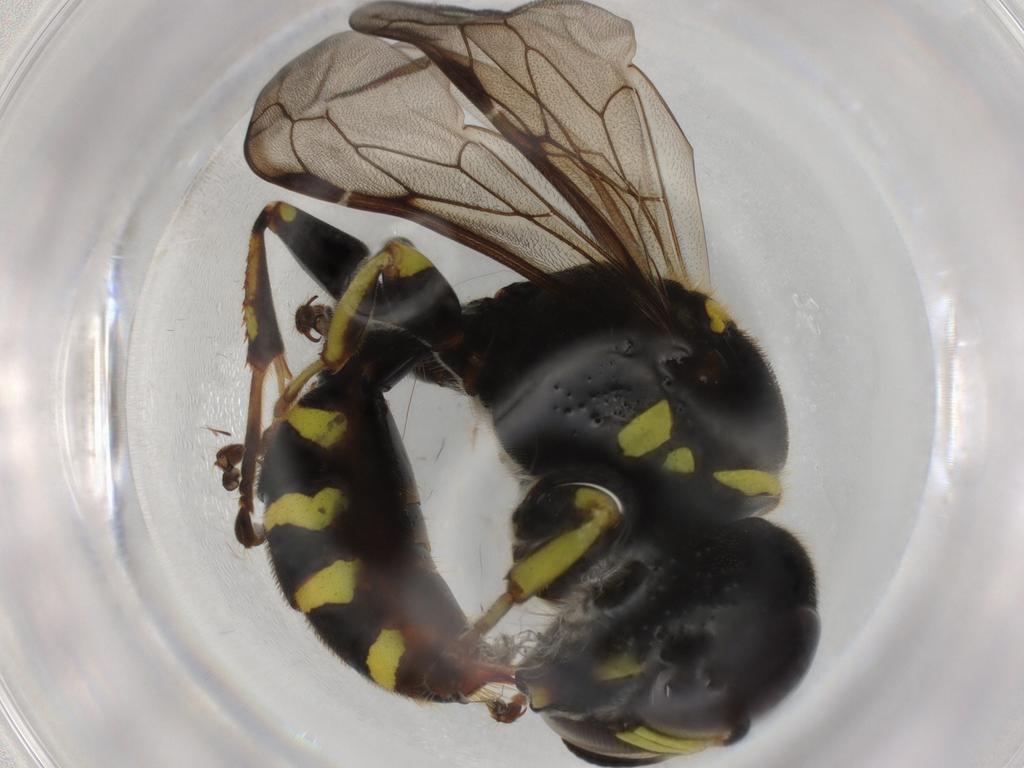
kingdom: Animalia
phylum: Arthropoda
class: Insecta
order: Hymenoptera
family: Crabronidae
